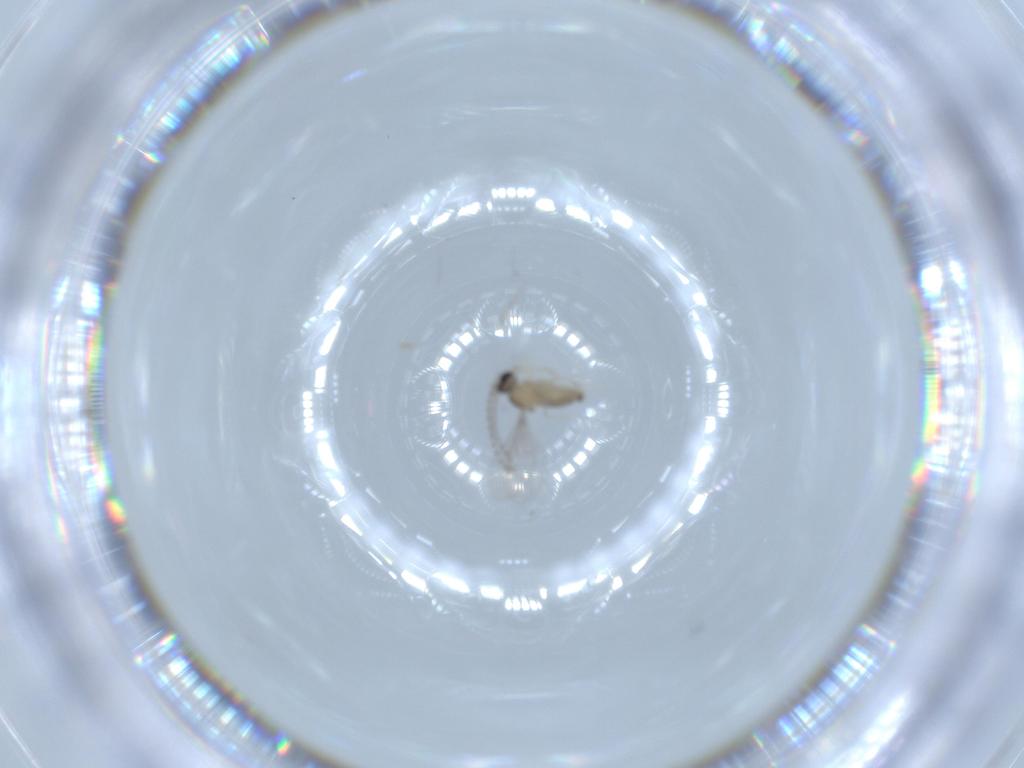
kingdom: Animalia
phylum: Arthropoda
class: Insecta
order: Diptera
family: Cecidomyiidae
